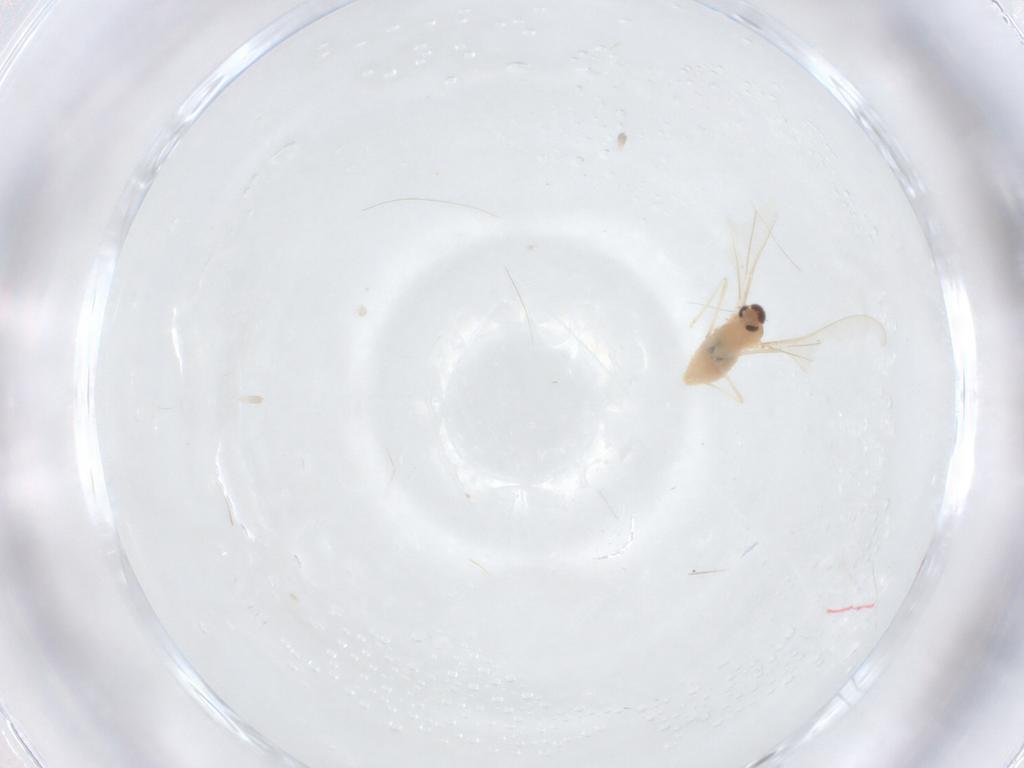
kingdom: Animalia
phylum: Arthropoda
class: Insecta
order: Diptera
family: Cecidomyiidae
